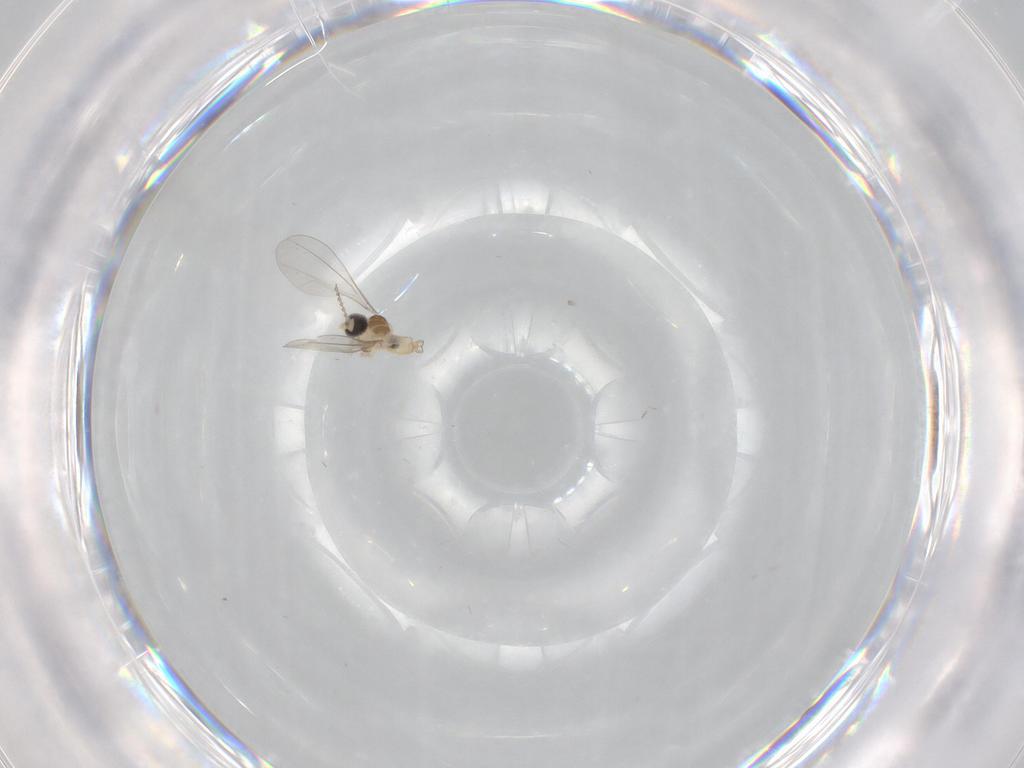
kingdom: Animalia
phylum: Arthropoda
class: Insecta
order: Diptera
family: Cecidomyiidae
